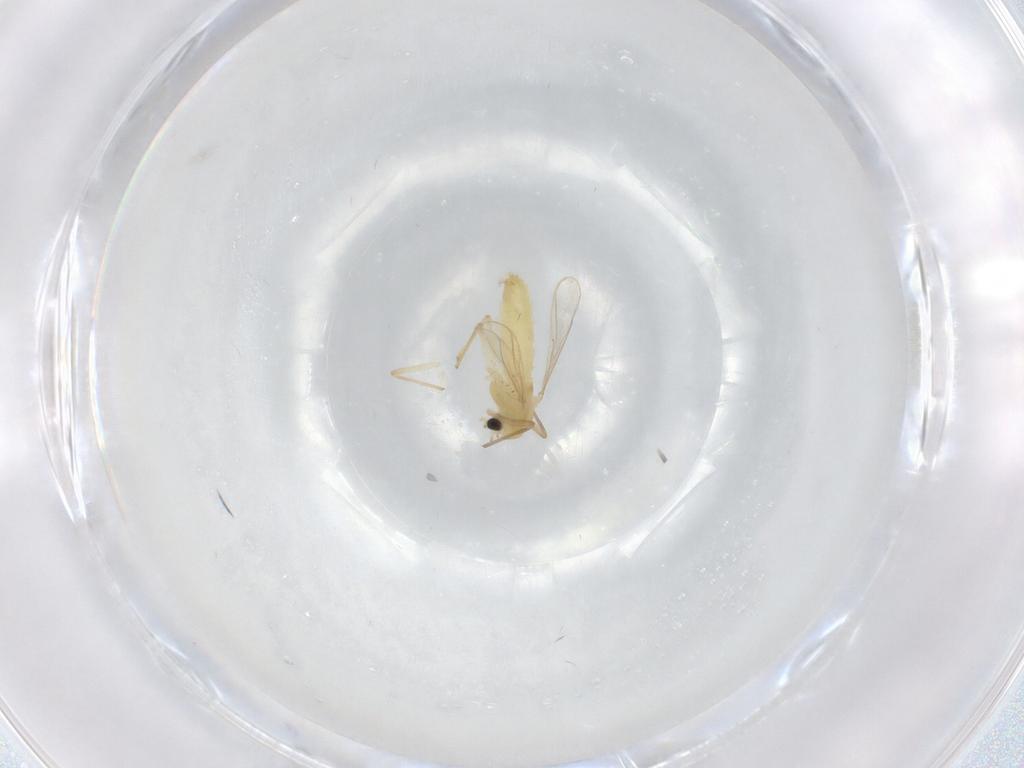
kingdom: Animalia
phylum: Arthropoda
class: Insecta
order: Diptera
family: Chironomidae
